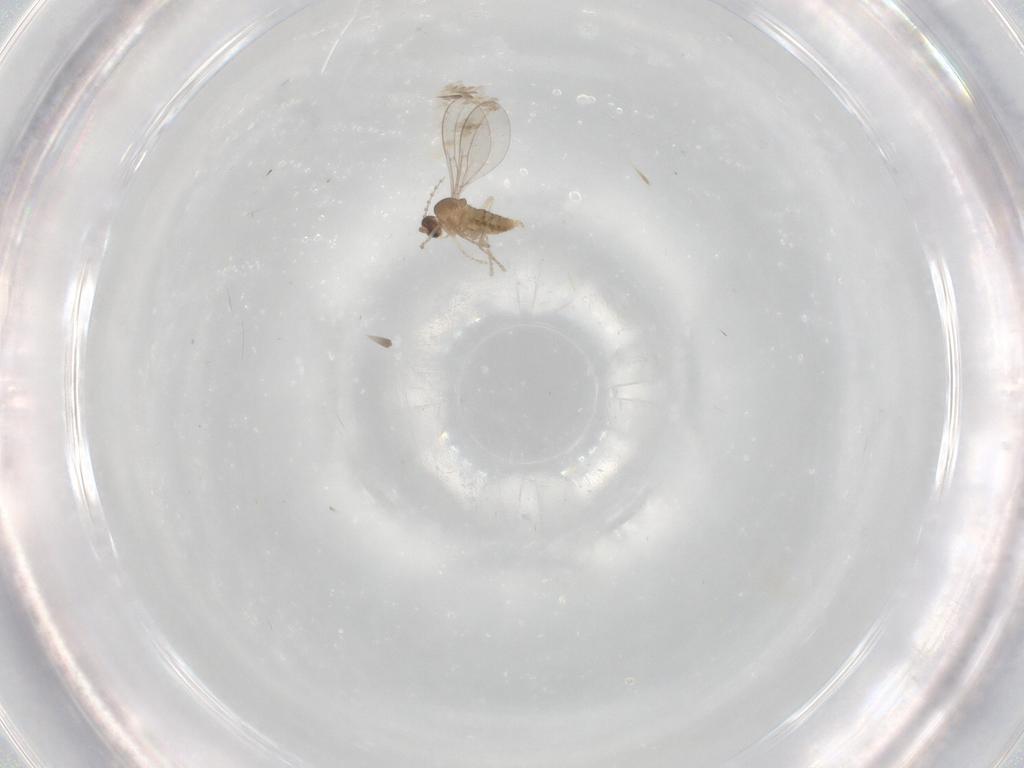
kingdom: Animalia
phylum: Arthropoda
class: Insecta
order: Diptera
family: Cecidomyiidae
